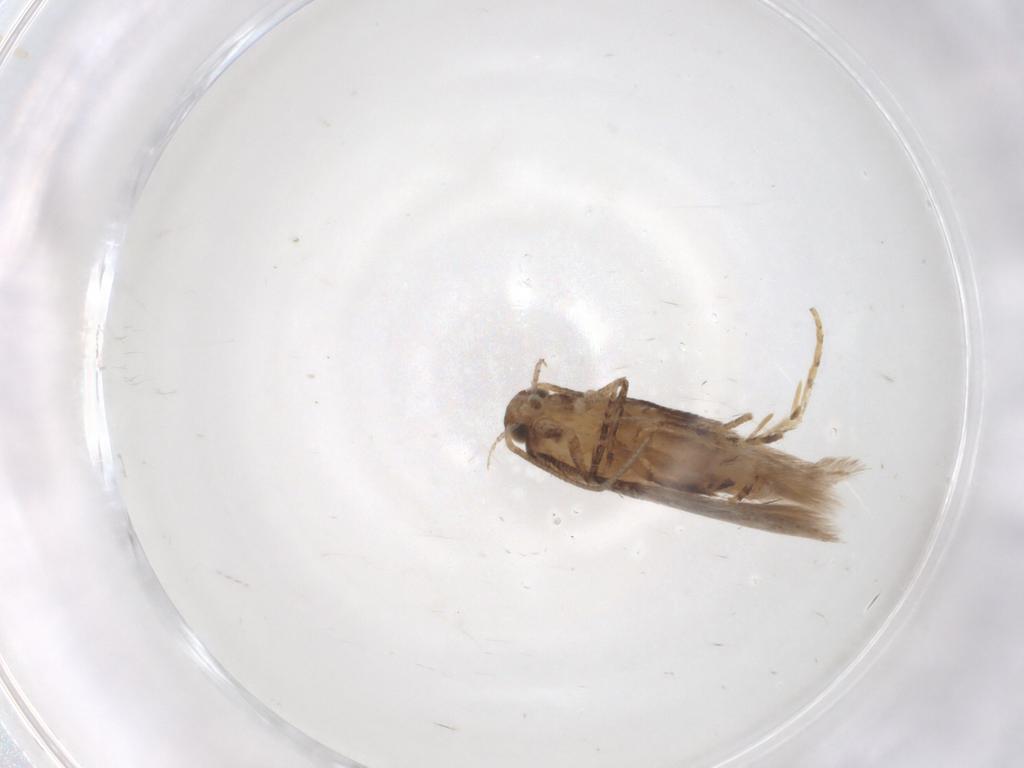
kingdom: Animalia
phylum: Arthropoda
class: Insecta
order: Lepidoptera
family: Gelechiidae
